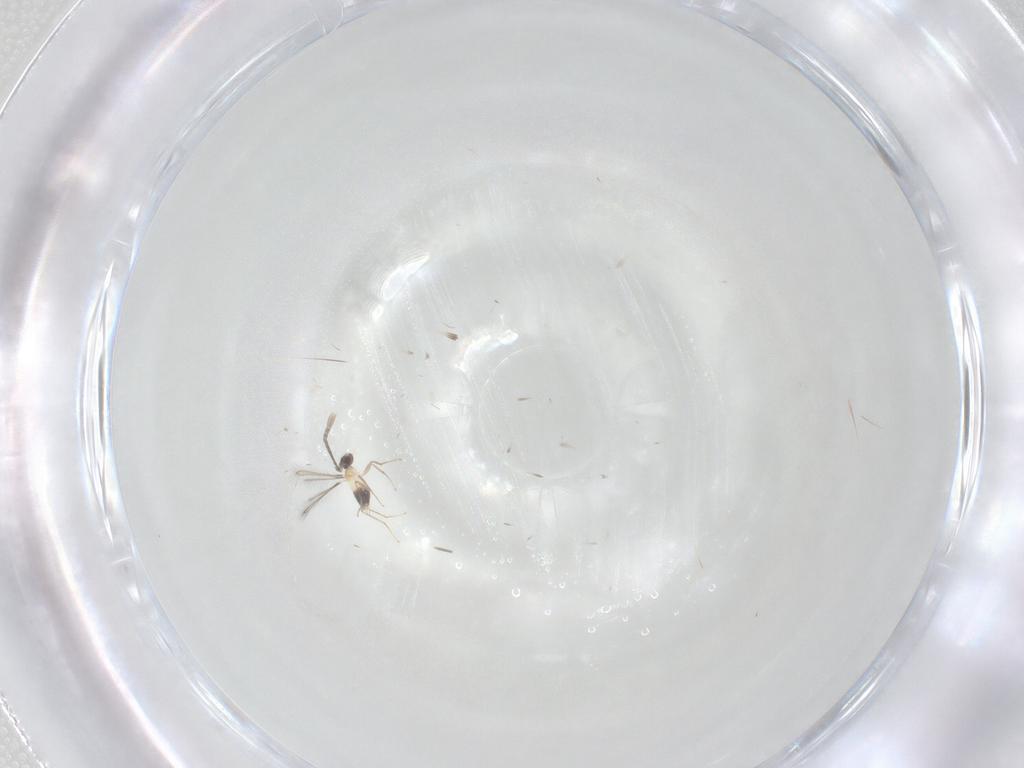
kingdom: Animalia
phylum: Arthropoda
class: Insecta
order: Hymenoptera
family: Mymaridae
